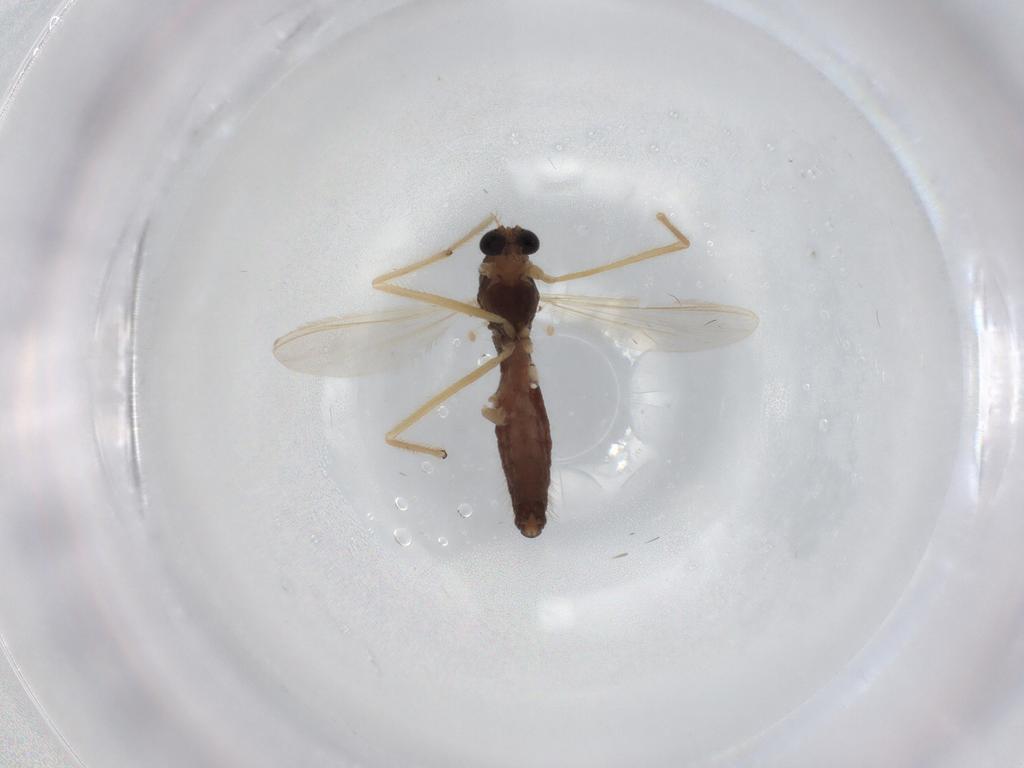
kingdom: Animalia
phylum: Arthropoda
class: Insecta
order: Diptera
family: Chironomidae
